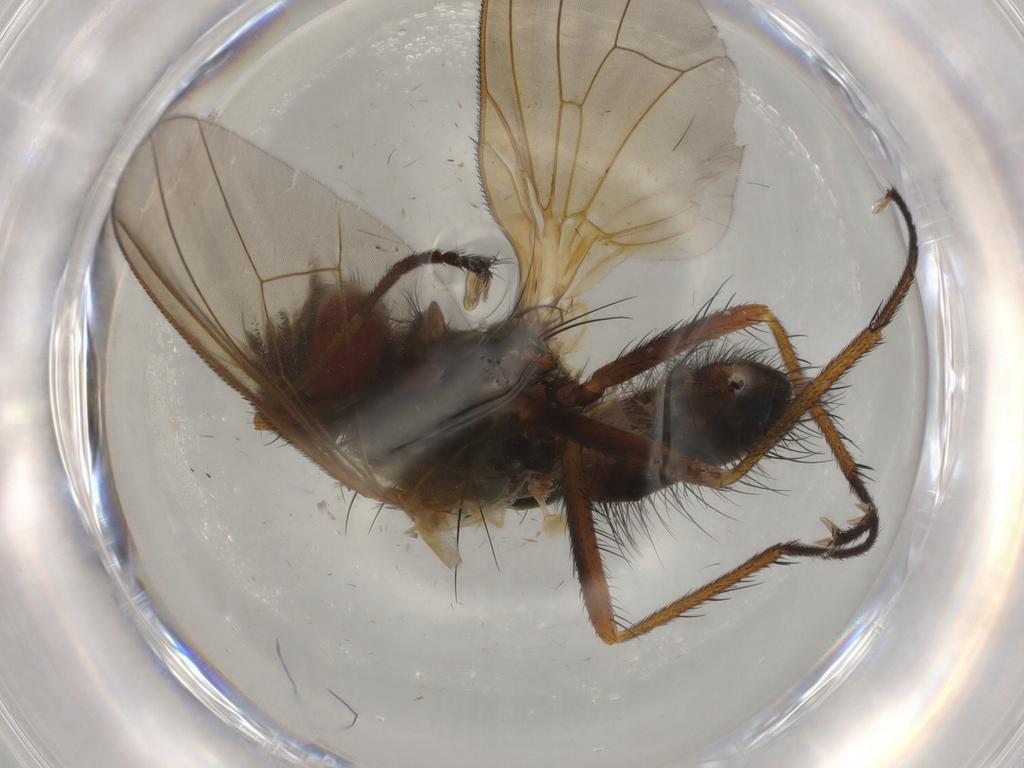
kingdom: Animalia
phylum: Arthropoda
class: Insecta
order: Diptera
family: Anthomyiidae
